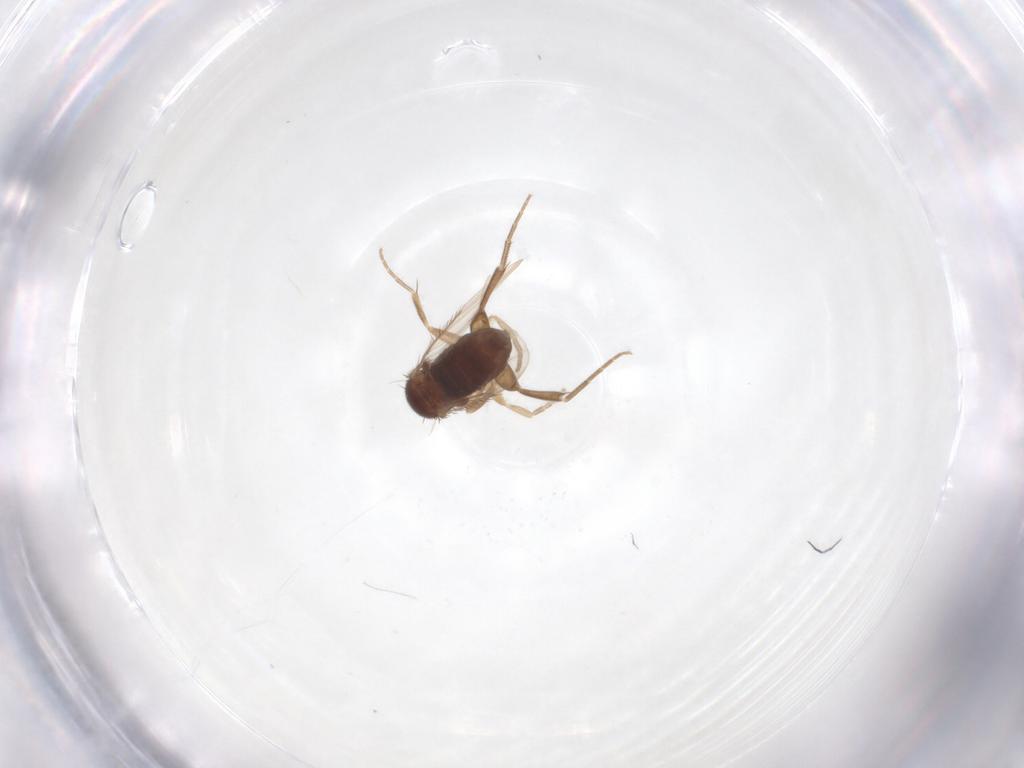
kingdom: Animalia
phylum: Arthropoda
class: Insecta
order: Diptera
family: Phoridae
